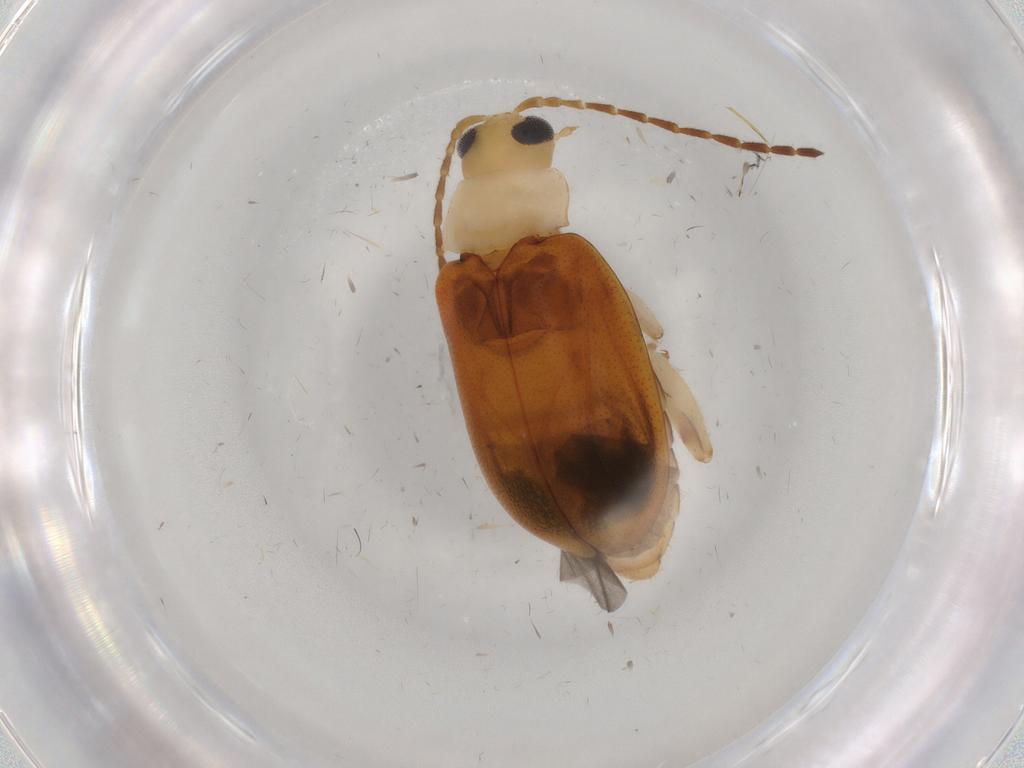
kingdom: Animalia
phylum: Arthropoda
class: Insecta
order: Coleoptera
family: Chrysomelidae
